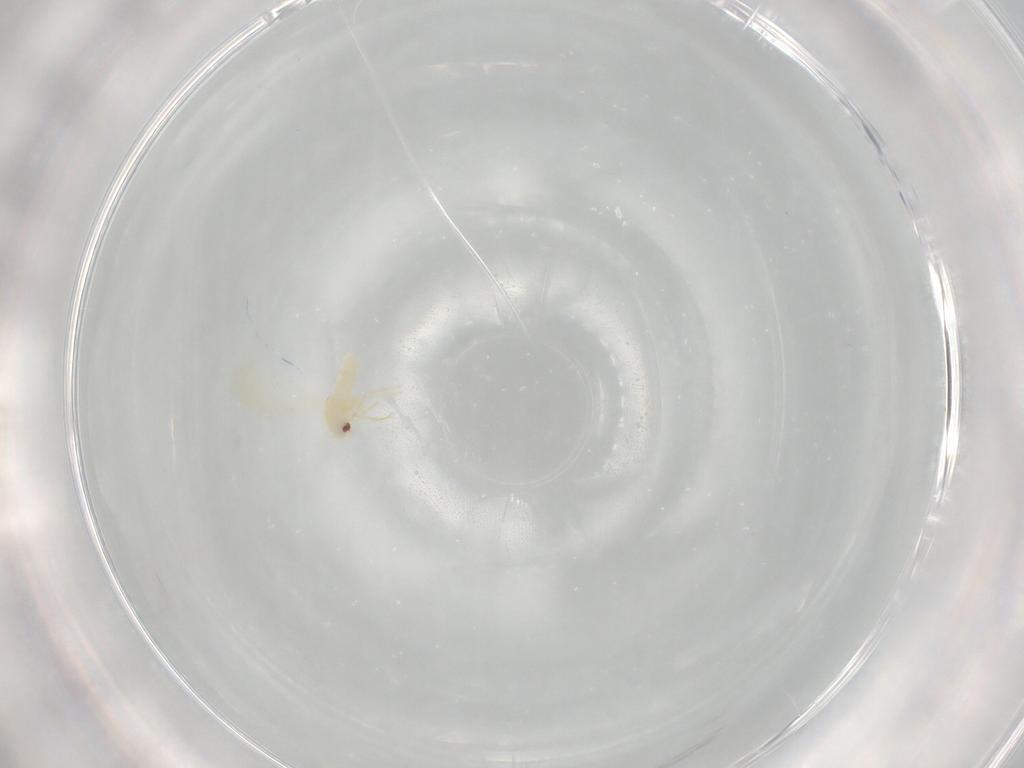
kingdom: Animalia
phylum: Arthropoda
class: Insecta
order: Hemiptera
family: Aleyrodidae
